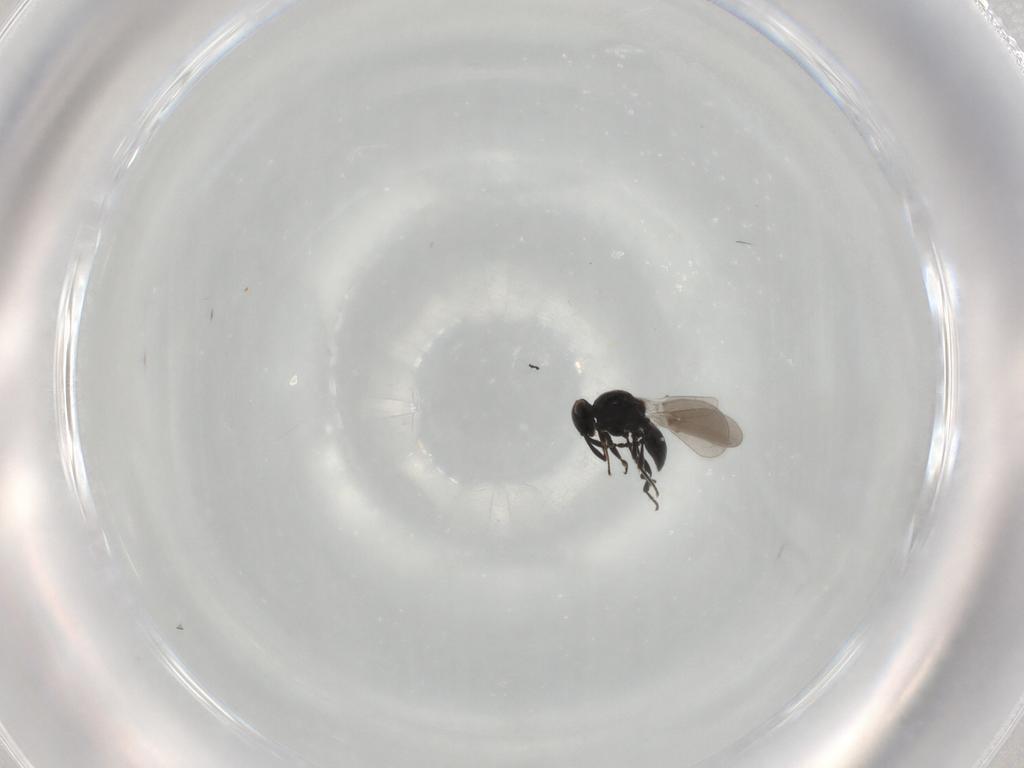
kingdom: Animalia
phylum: Arthropoda
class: Insecta
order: Hymenoptera
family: Platygastridae
